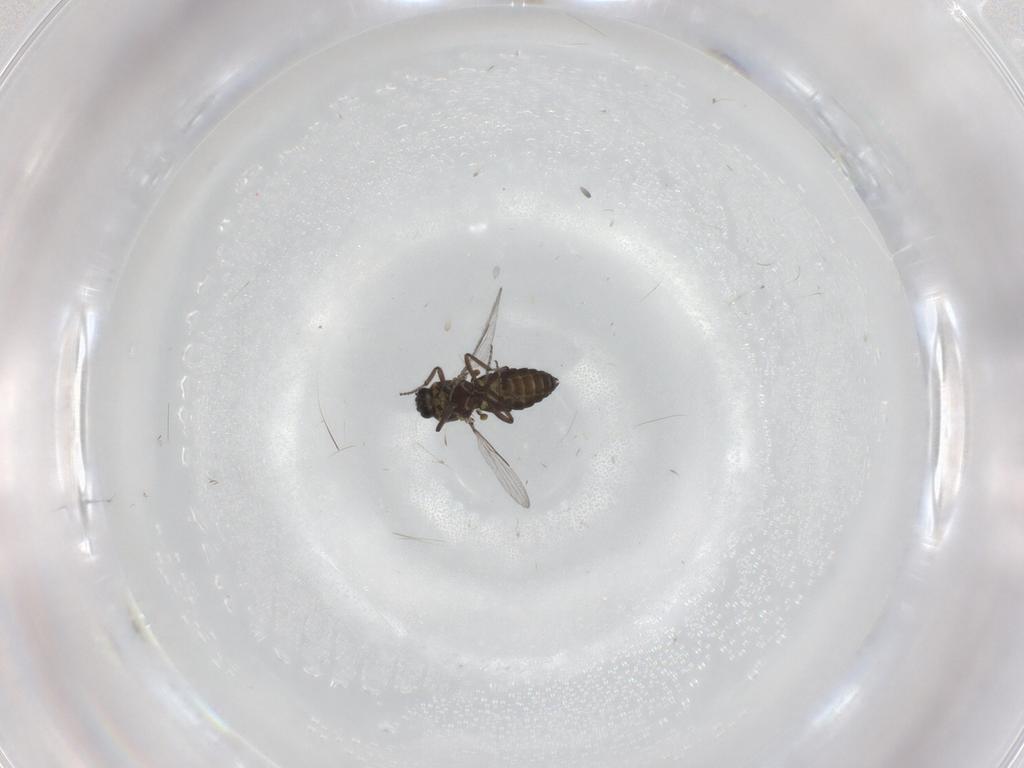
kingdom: Animalia
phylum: Arthropoda
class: Insecta
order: Diptera
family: Ceratopogonidae
